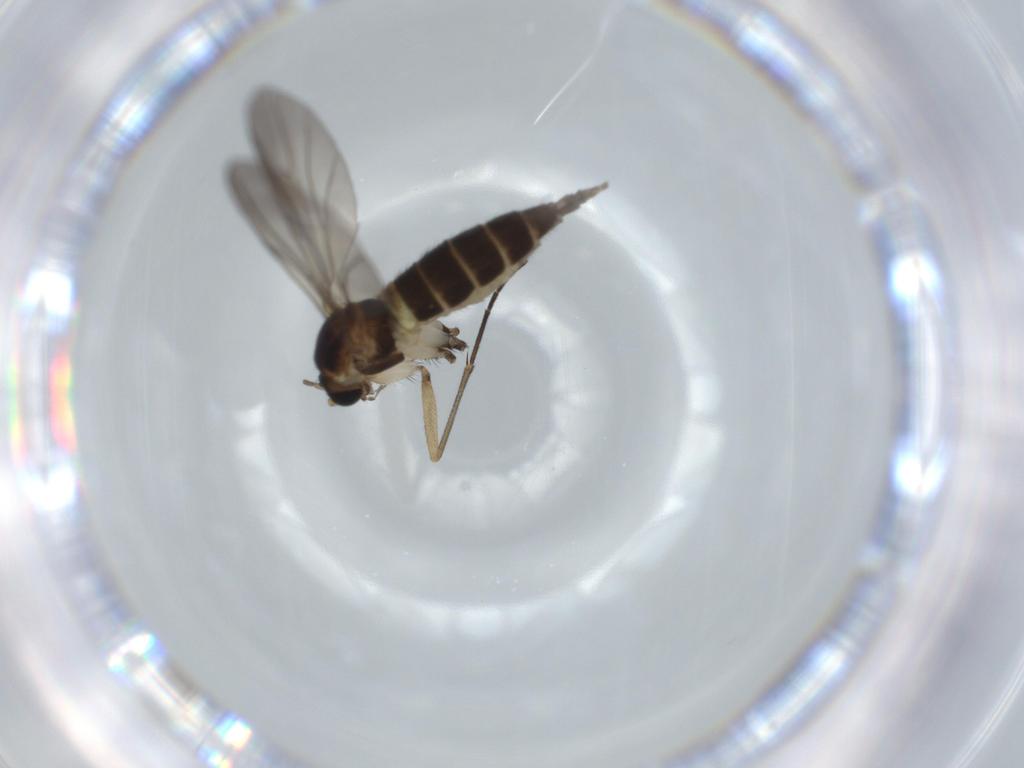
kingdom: Animalia
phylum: Arthropoda
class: Insecta
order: Diptera
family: Sciaridae
